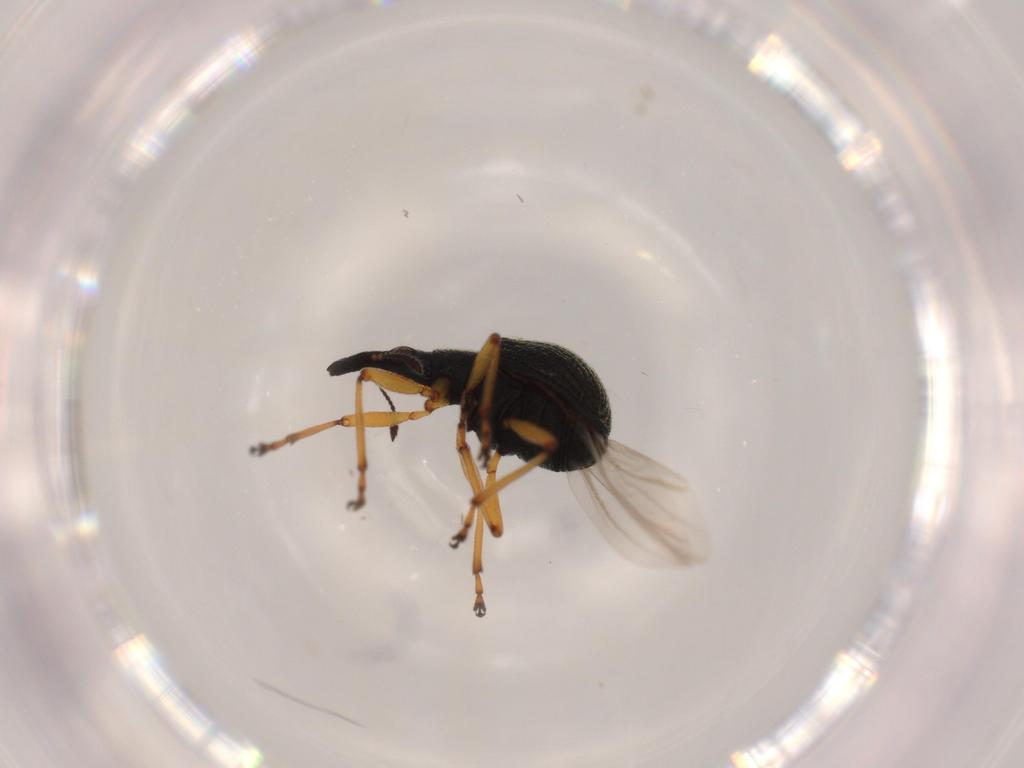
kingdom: Animalia
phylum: Arthropoda
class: Insecta
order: Coleoptera
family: Brentidae
